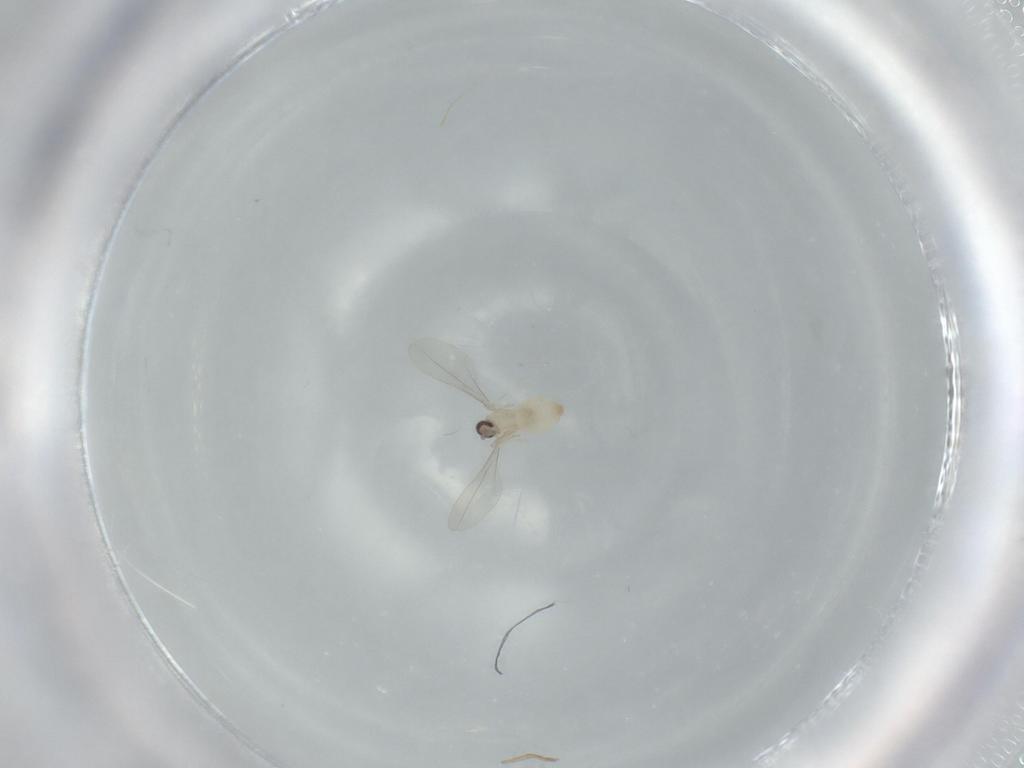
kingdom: Animalia
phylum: Arthropoda
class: Insecta
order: Diptera
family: Cecidomyiidae
